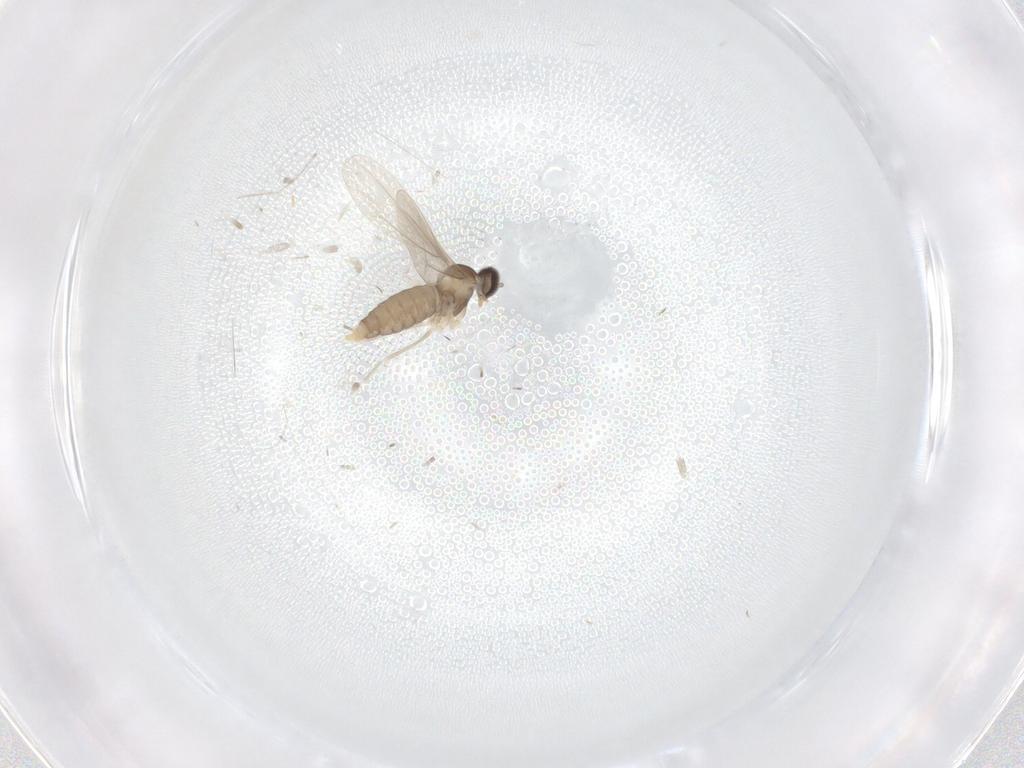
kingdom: Animalia
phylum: Arthropoda
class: Insecta
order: Diptera
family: Cecidomyiidae
